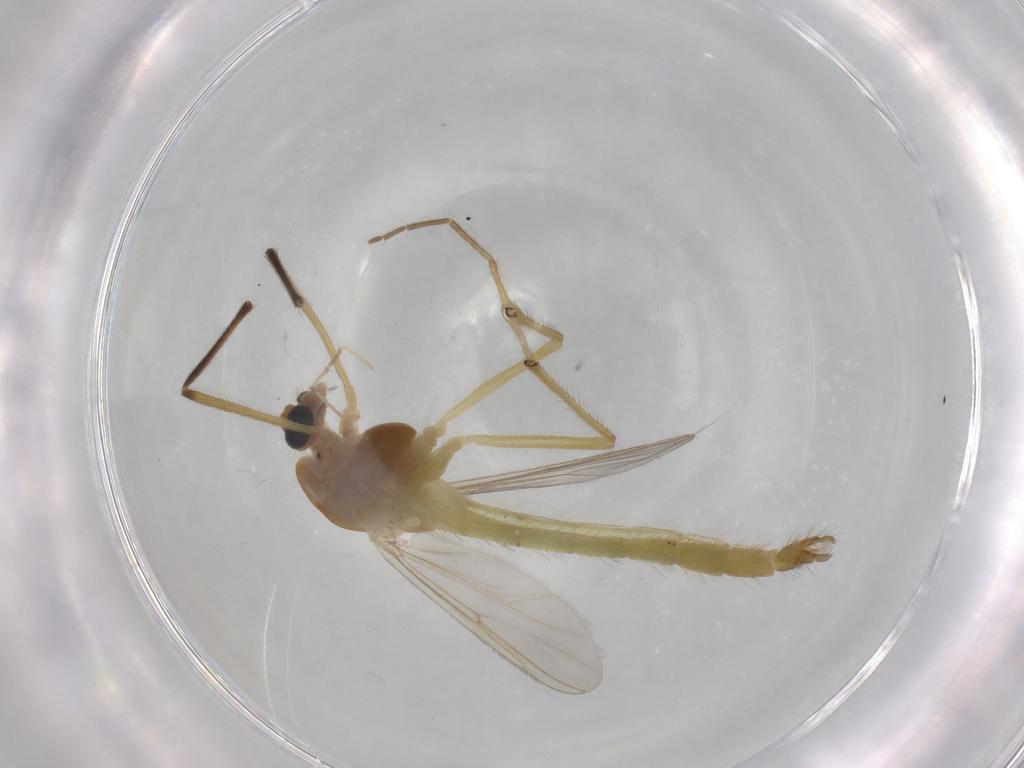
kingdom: Animalia
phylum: Arthropoda
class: Insecta
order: Diptera
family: Chironomidae
